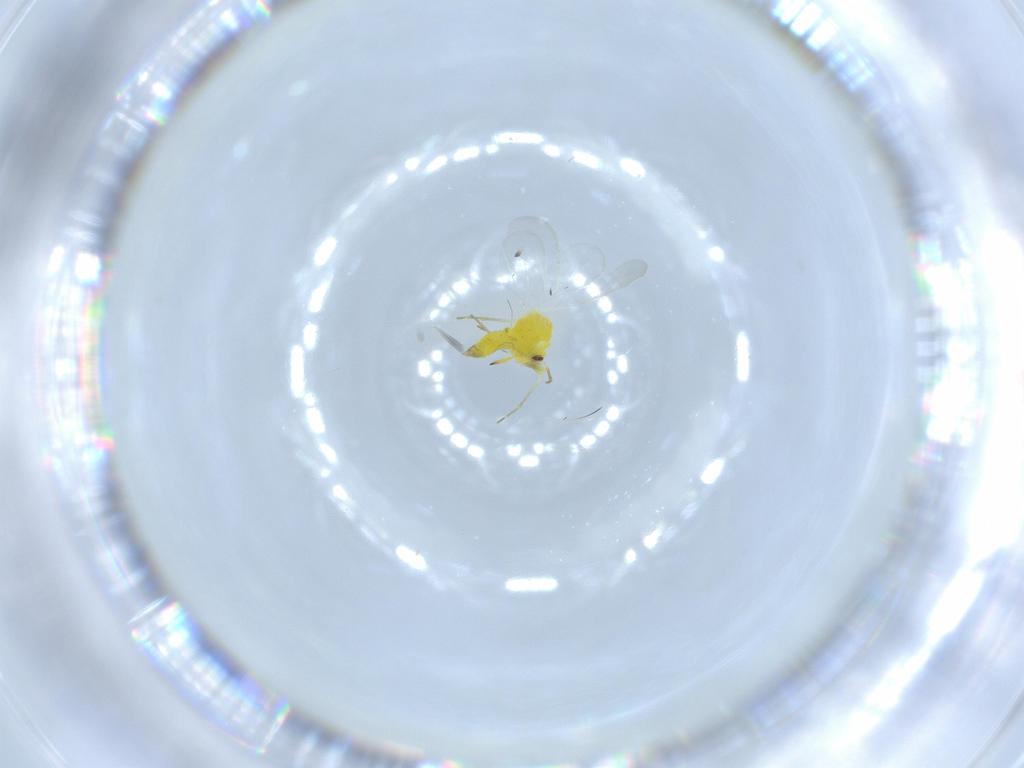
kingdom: Animalia
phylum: Arthropoda
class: Insecta
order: Hemiptera
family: Aleyrodidae
